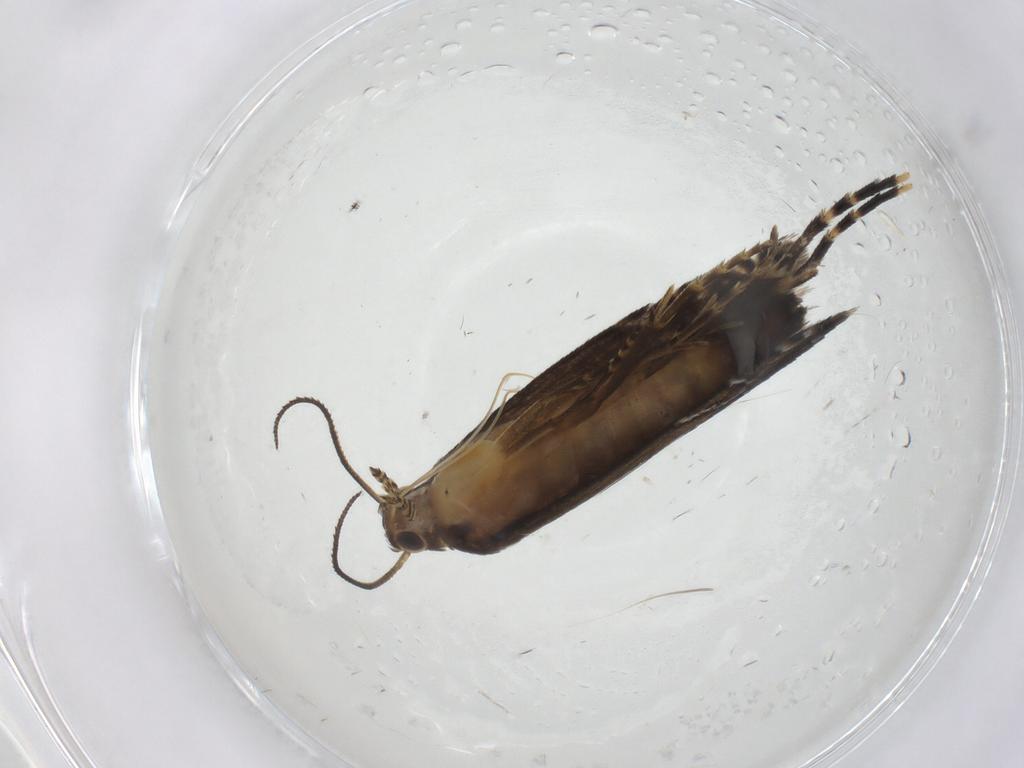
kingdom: Animalia
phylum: Arthropoda
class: Insecta
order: Lepidoptera
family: Glyphipterigidae
